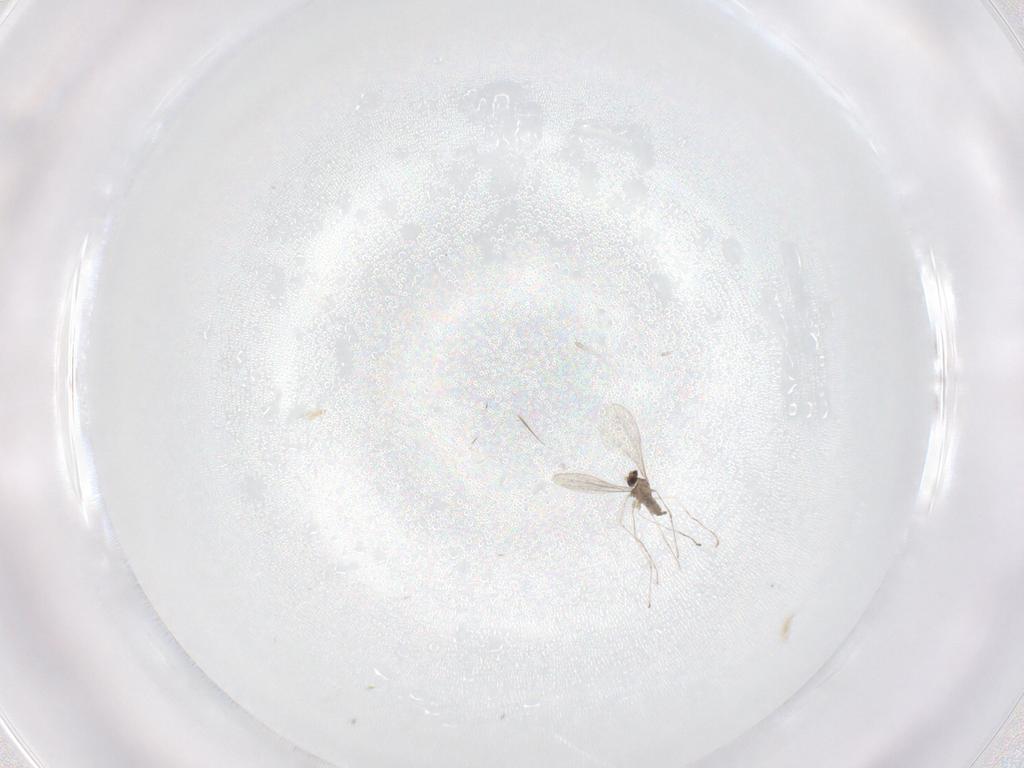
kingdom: Animalia
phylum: Arthropoda
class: Insecta
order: Diptera
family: Cecidomyiidae
